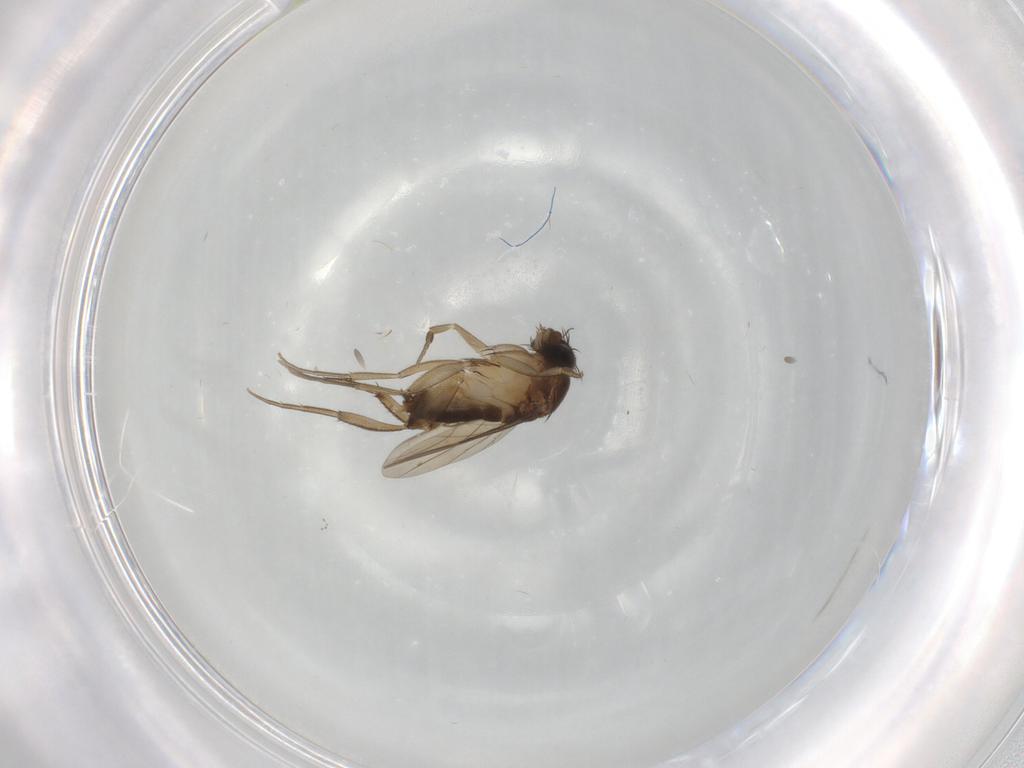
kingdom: Animalia
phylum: Arthropoda
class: Insecta
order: Diptera
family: Phoridae
